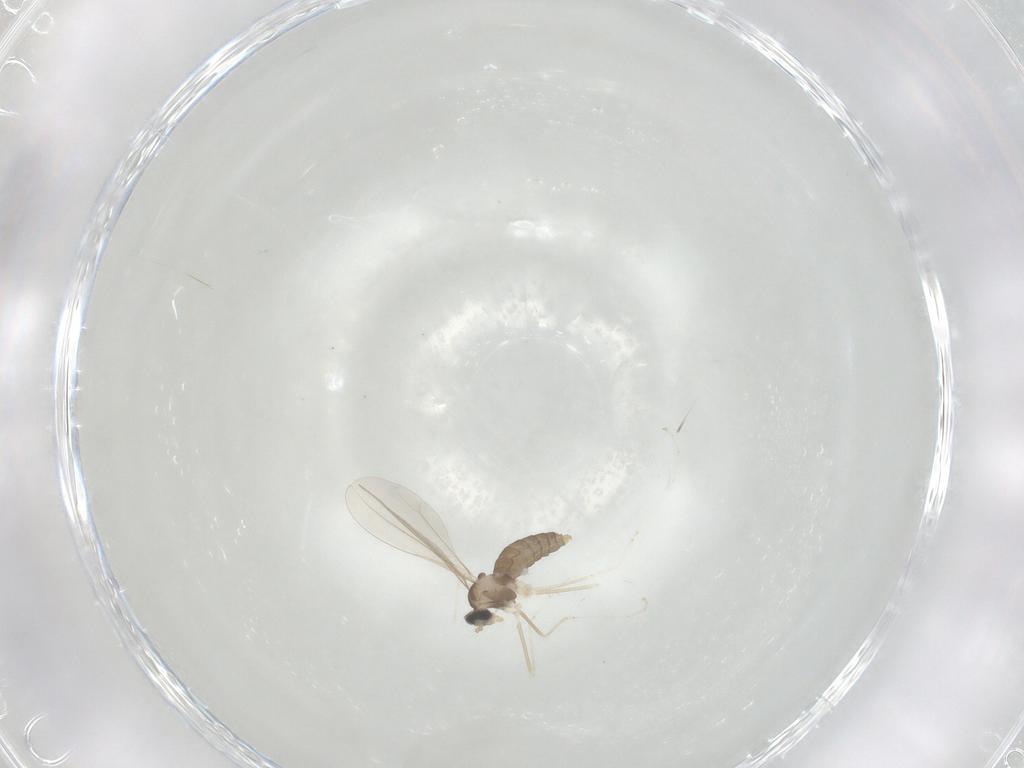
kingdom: Animalia
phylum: Arthropoda
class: Insecta
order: Diptera
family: Cecidomyiidae
